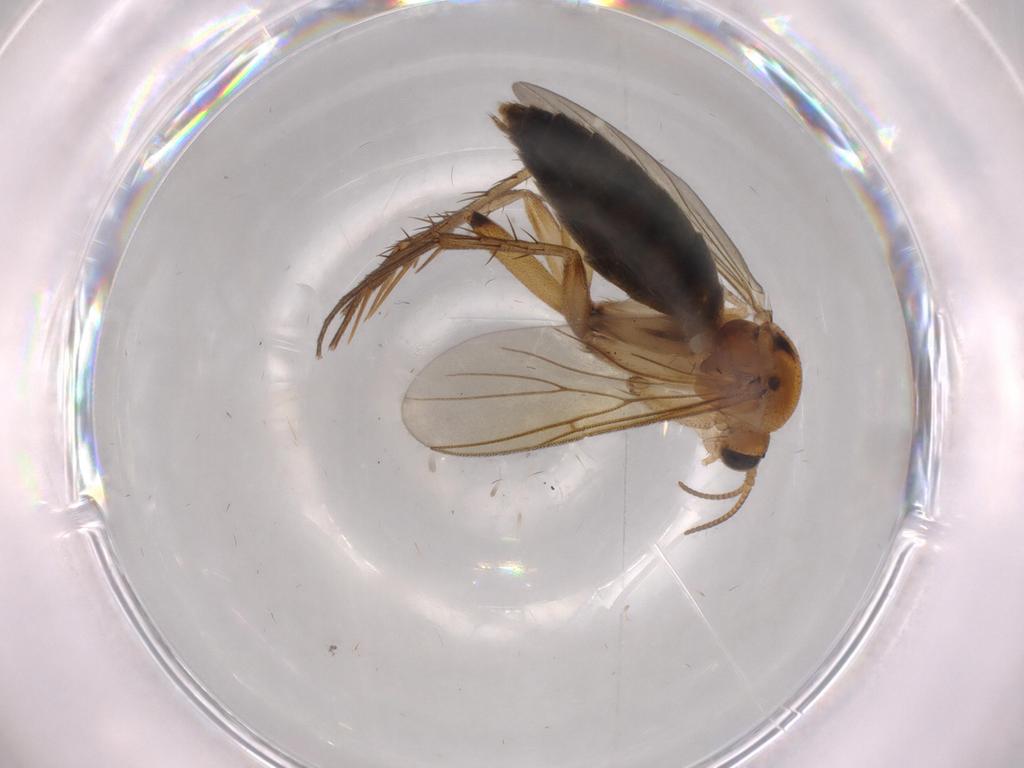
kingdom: Animalia
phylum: Arthropoda
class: Insecta
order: Diptera
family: Cecidomyiidae
